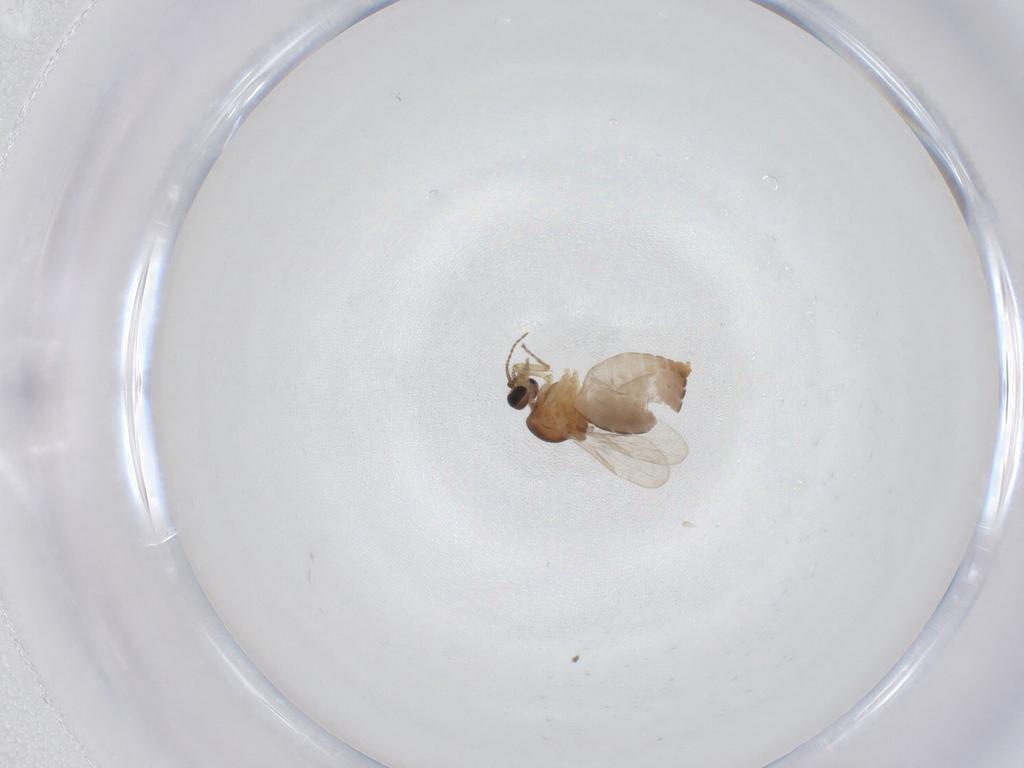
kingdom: Animalia
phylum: Arthropoda
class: Insecta
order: Diptera
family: Ceratopogonidae
